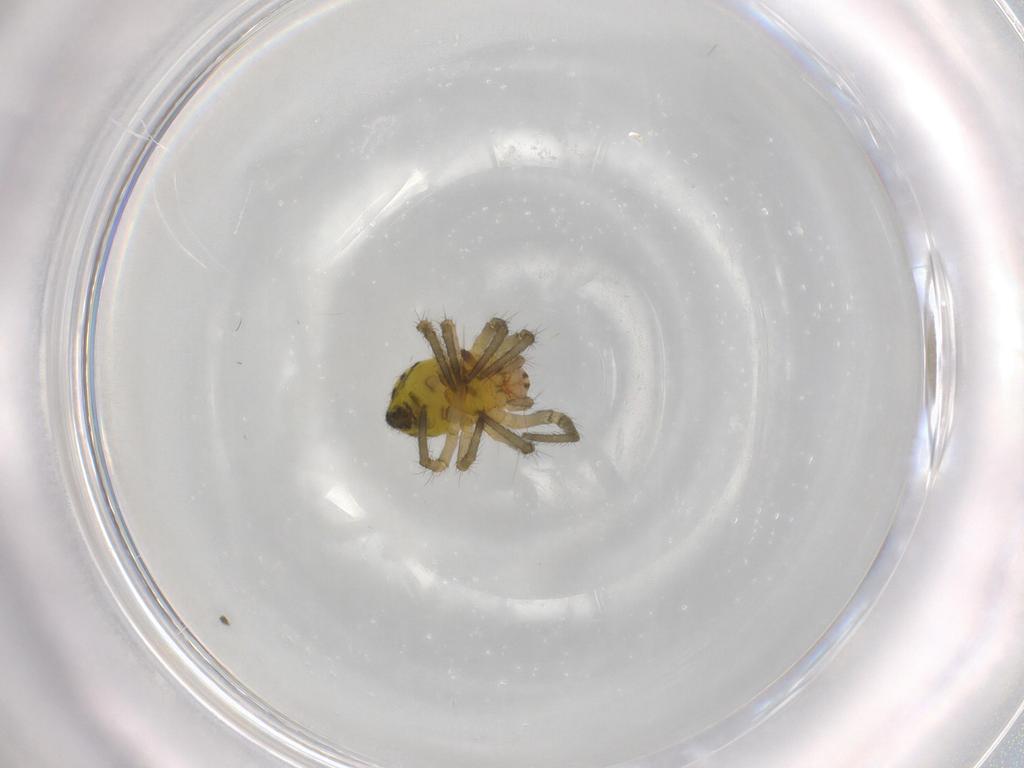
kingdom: Animalia
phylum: Arthropoda
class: Arachnida
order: Araneae
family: Araneidae
